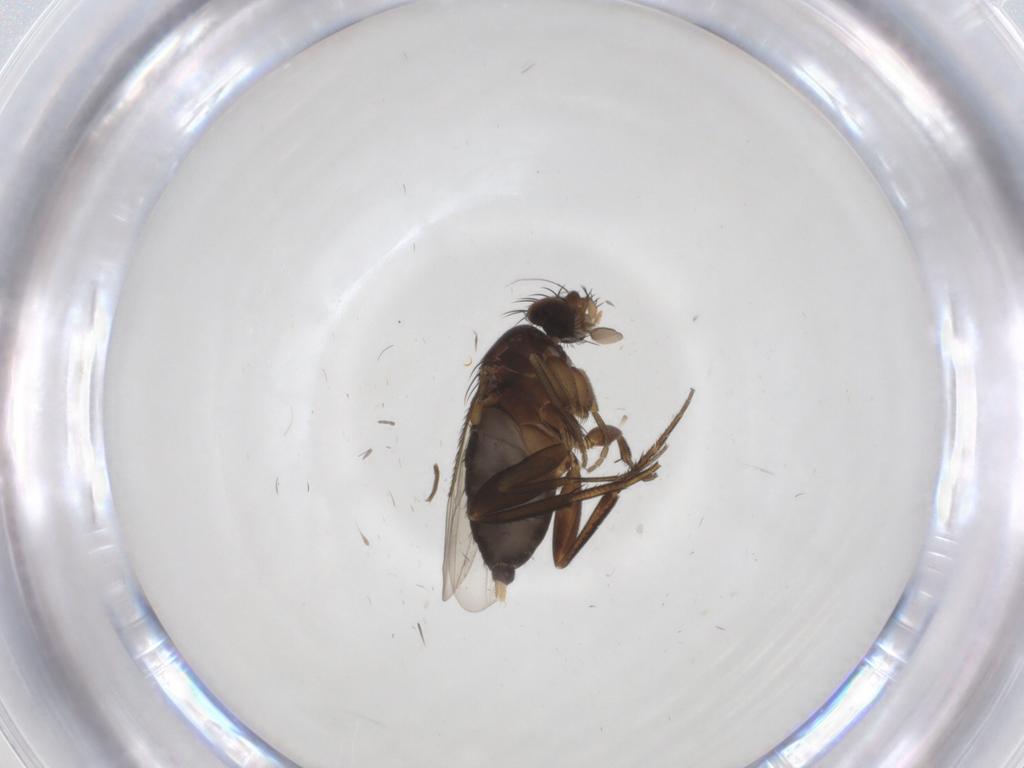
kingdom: Animalia
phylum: Arthropoda
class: Insecta
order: Diptera
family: Phoridae
